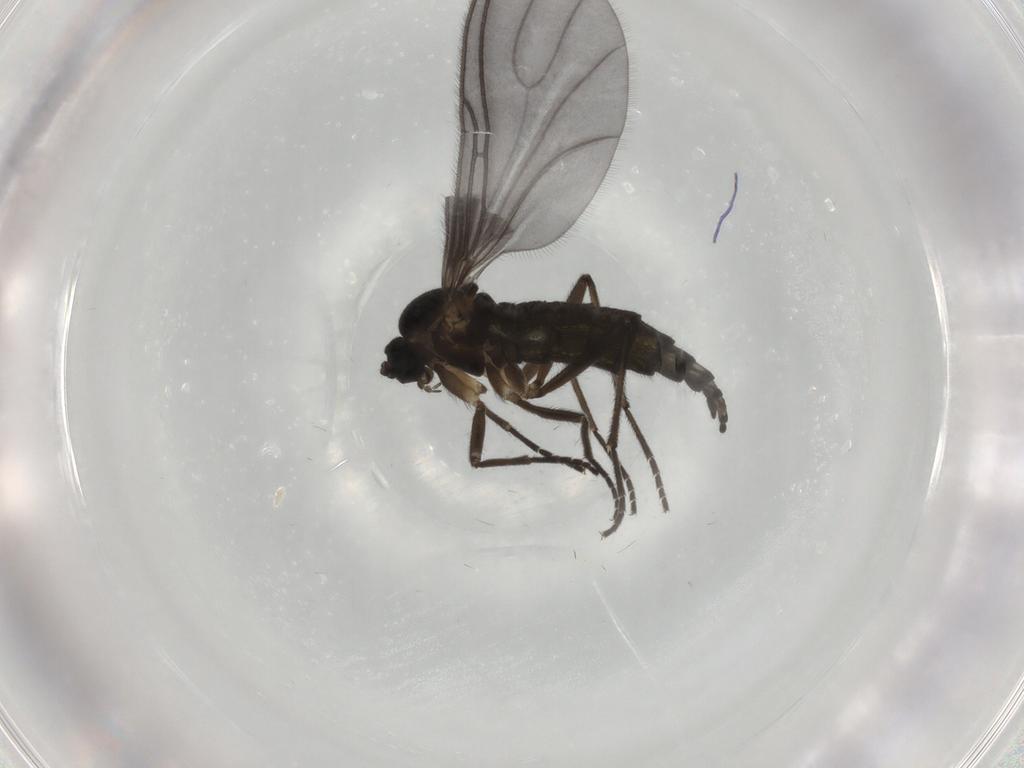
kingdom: Animalia
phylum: Arthropoda
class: Insecta
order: Diptera
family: Sciaridae
